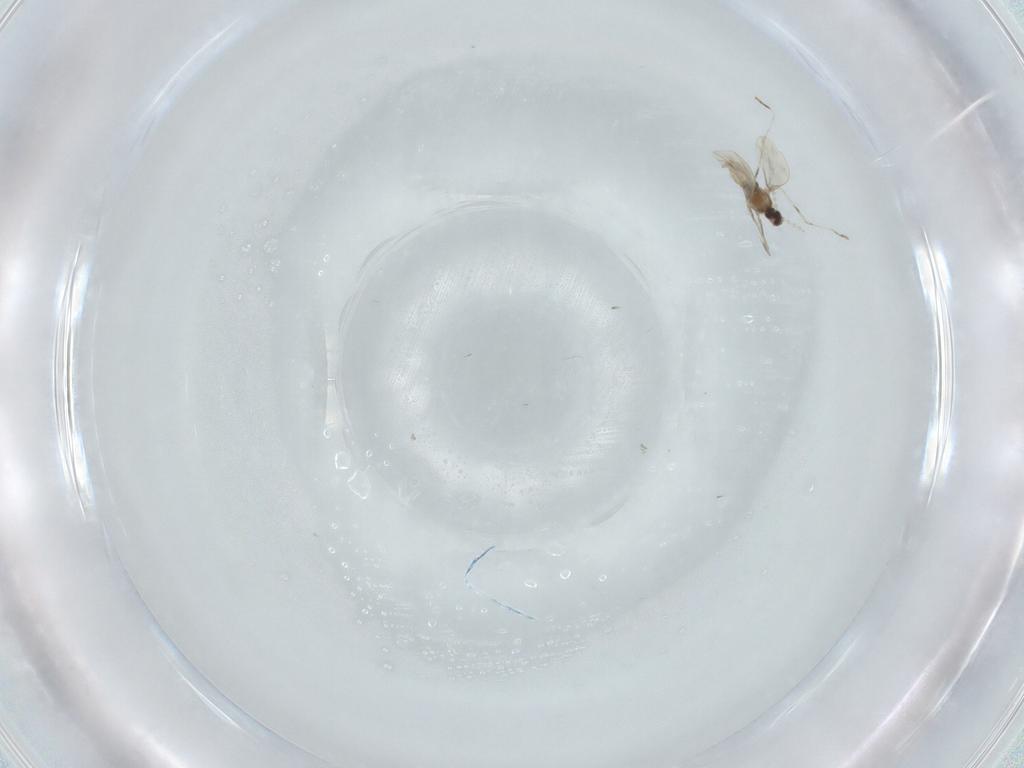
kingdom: Animalia
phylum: Arthropoda
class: Insecta
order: Diptera
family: Cecidomyiidae
